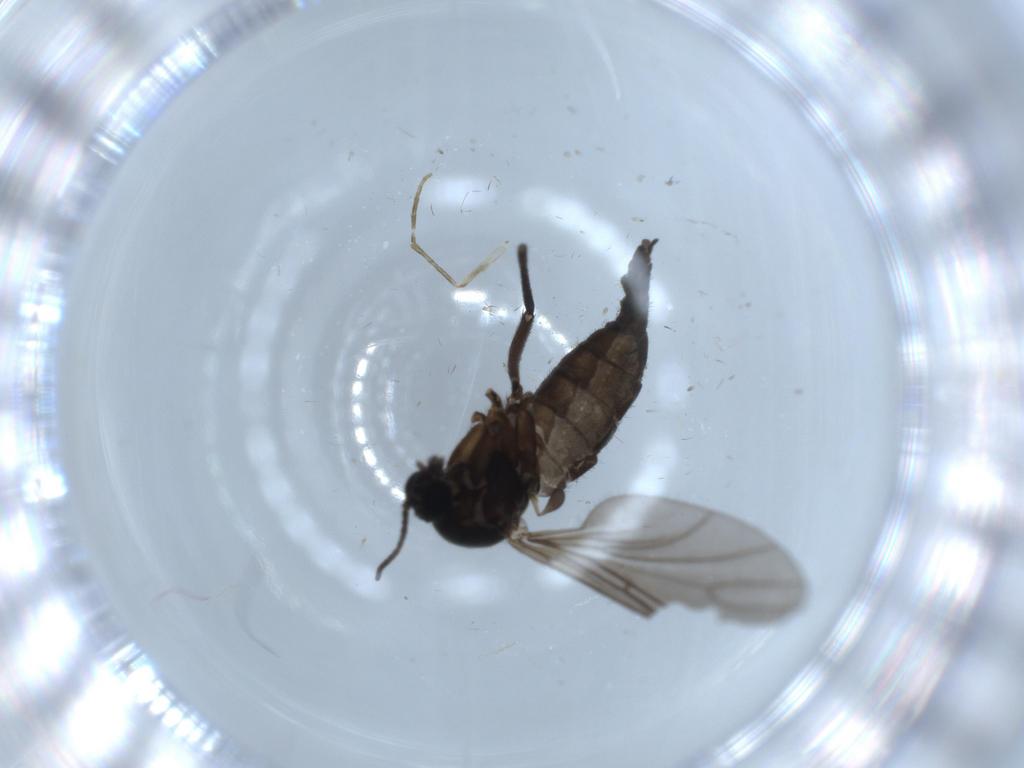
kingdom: Animalia
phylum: Arthropoda
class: Insecta
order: Diptera
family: Sciaridae
